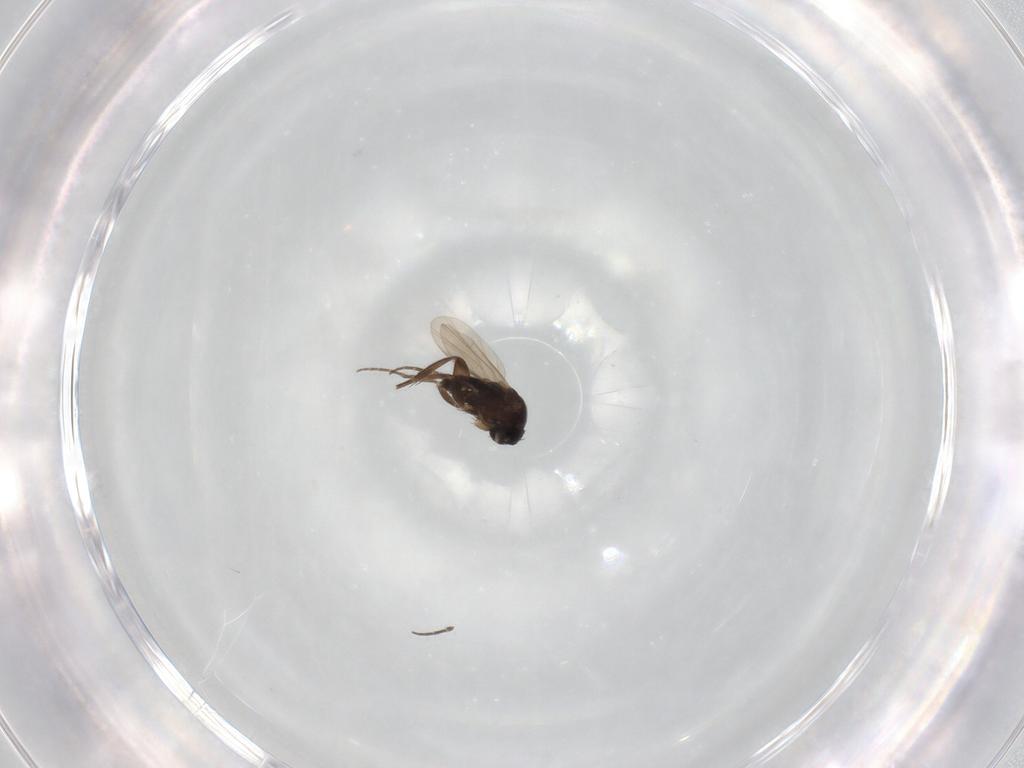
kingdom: Animalia
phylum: Arthropoda
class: Insecta
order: Diptera
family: Phoridae
